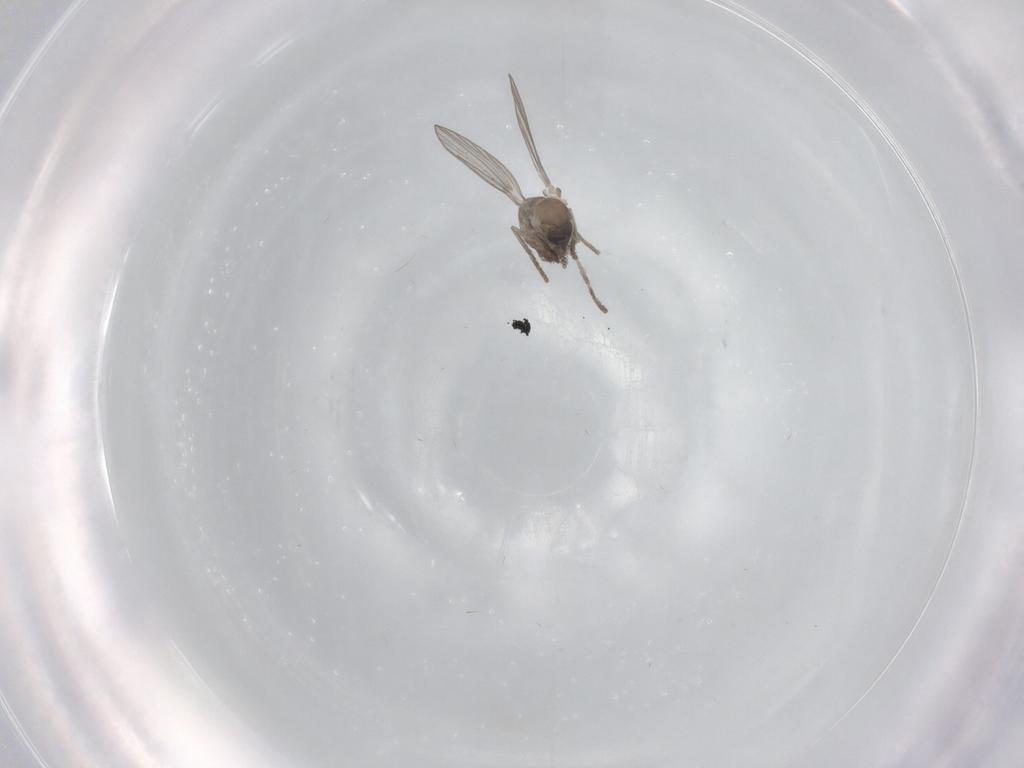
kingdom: Animalia
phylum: Arthropoda
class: Insecta
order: Diptera
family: Psychodidae
